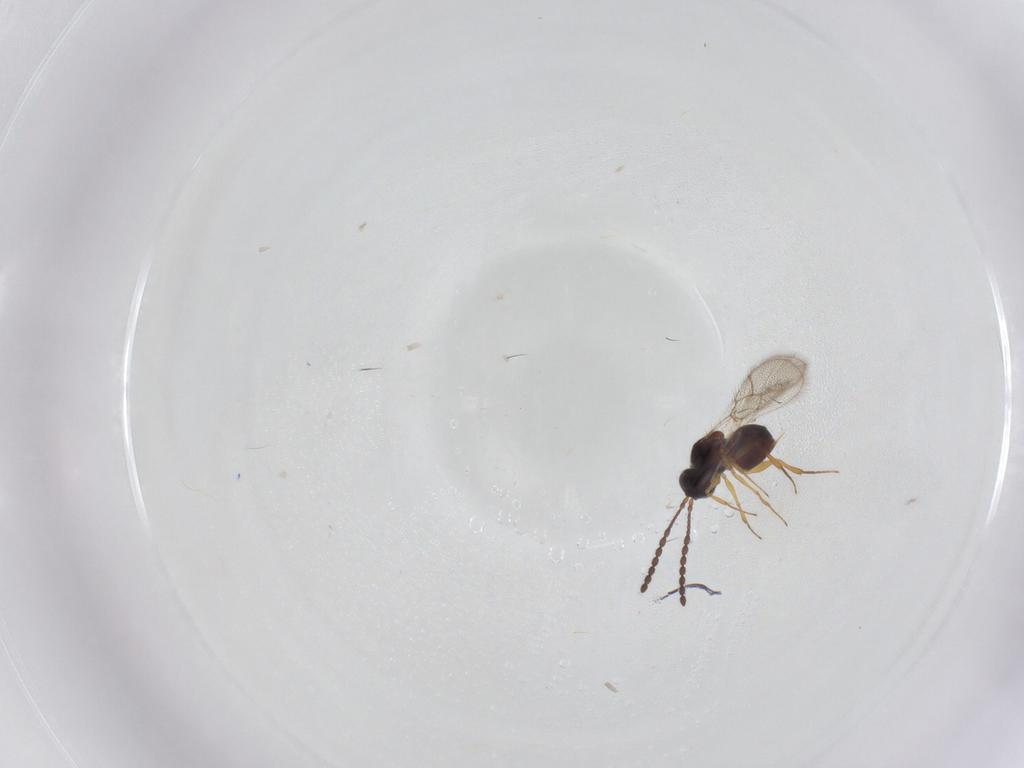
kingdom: Animalia
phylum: Arthropoda
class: Insecta
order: Hymenoptera
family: Figitidae
